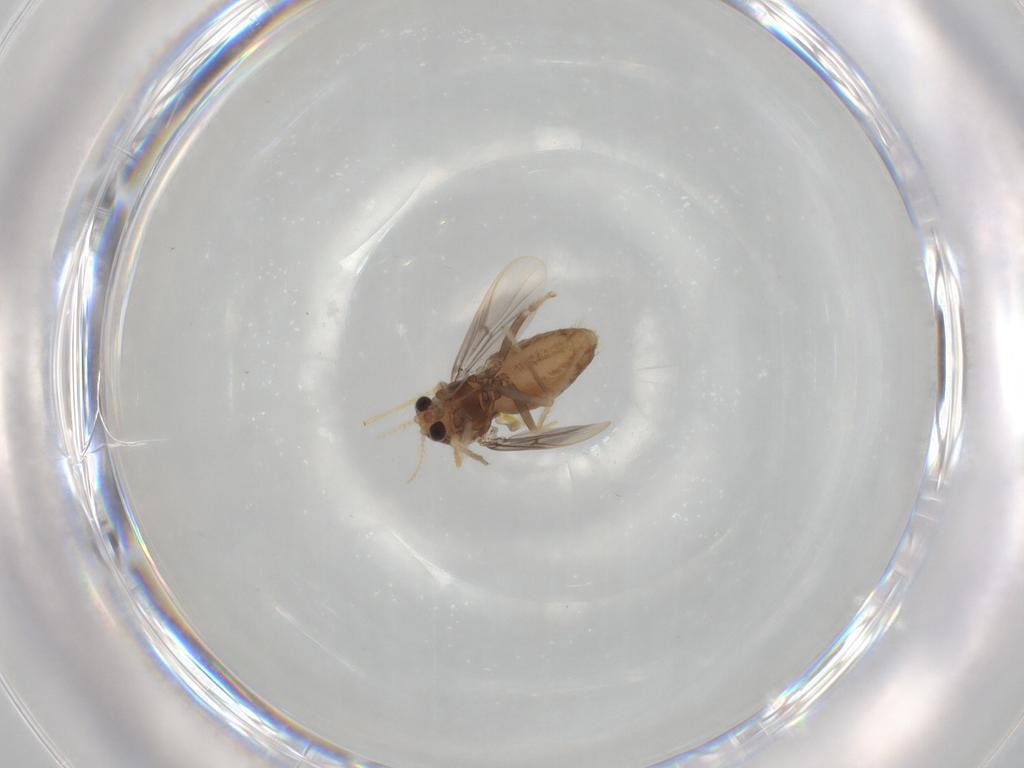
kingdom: Animalia
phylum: Arthropoda
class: Insecta
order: Diptera
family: Chironomidae
